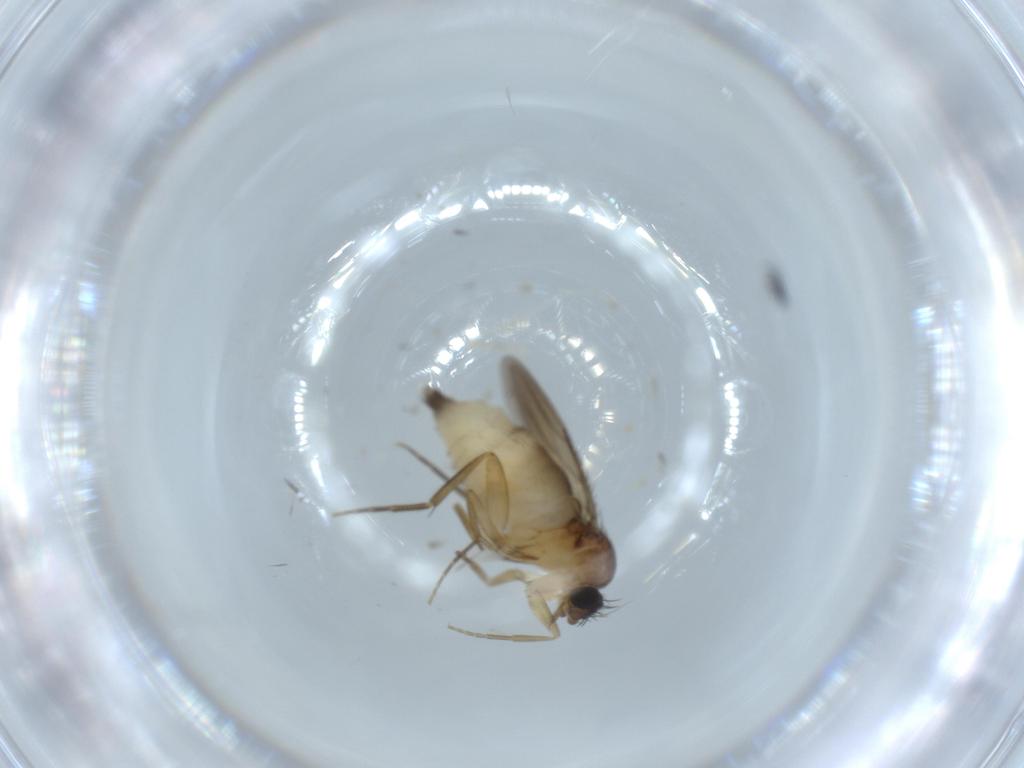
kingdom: Animalia
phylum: Arthropoda
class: Insecta
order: Diptera
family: Phoridae
